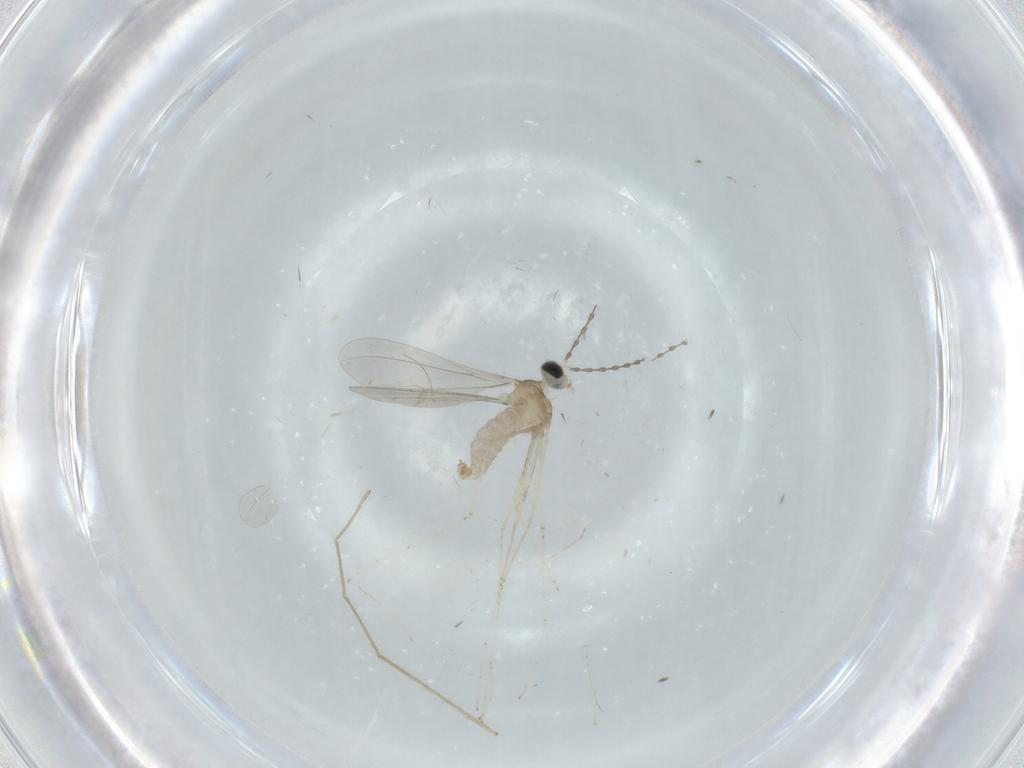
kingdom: Animalia
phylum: Arthropoda
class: Insecta
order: Diptera
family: Cecidomyiidae
